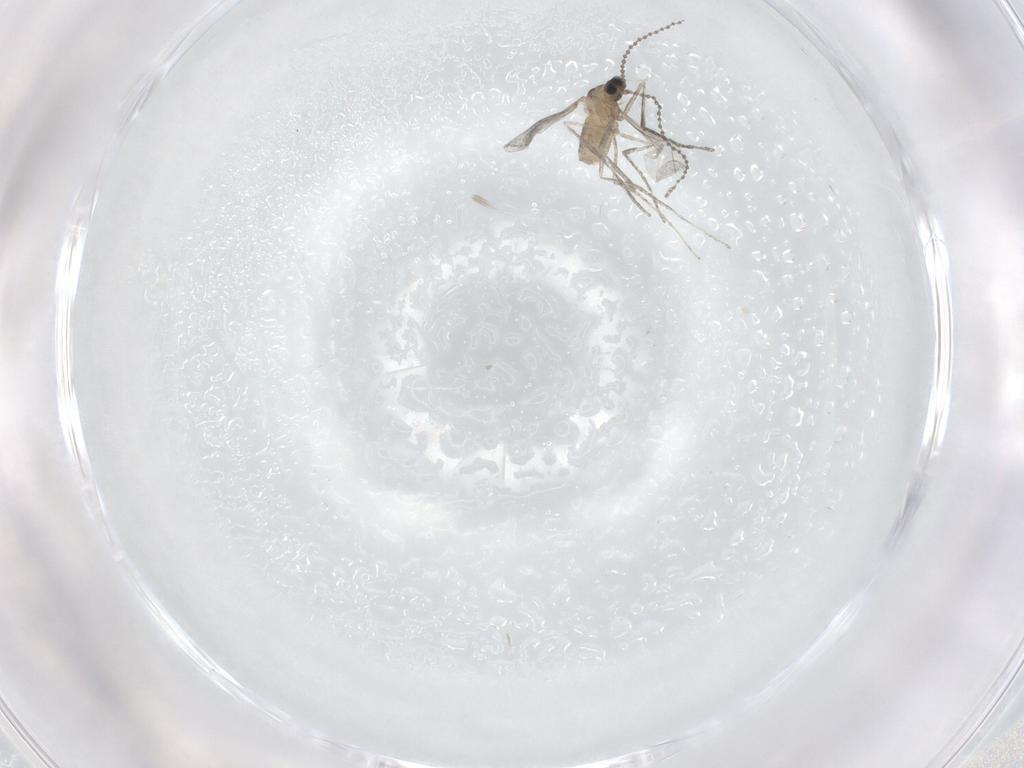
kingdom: Animalia
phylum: Arthropoda
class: Insecta
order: Diptera
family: Cecidomyiidae
